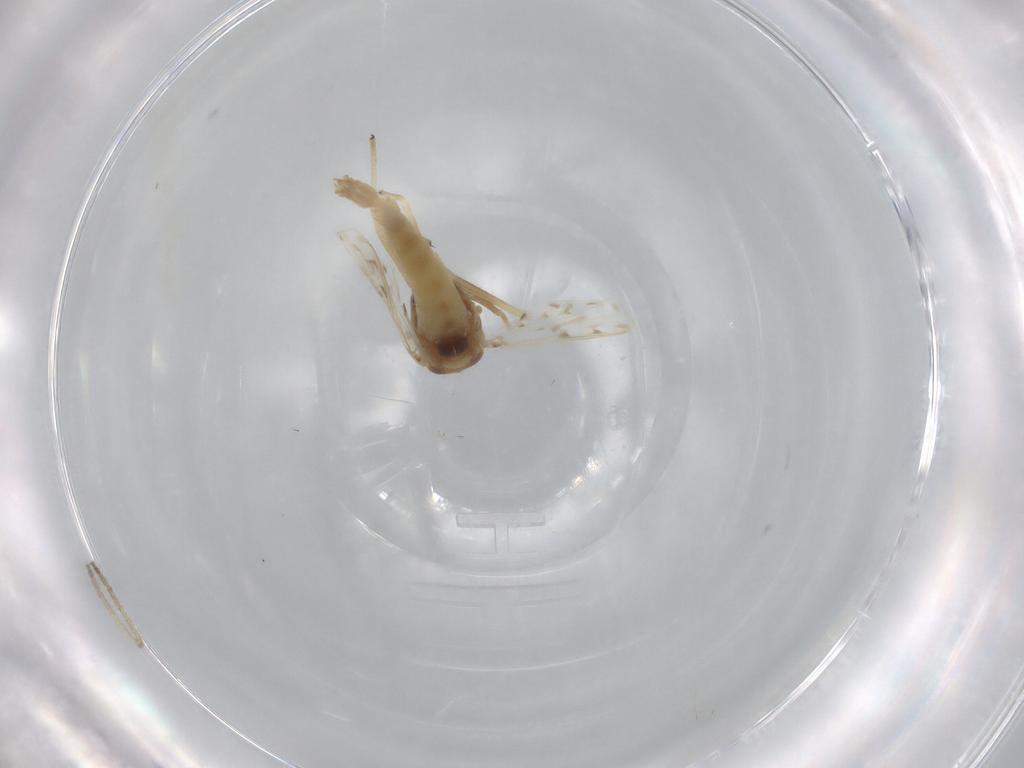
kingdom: Animalia
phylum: Arthropoda
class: Insecta
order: Diptera
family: Chironomidae
